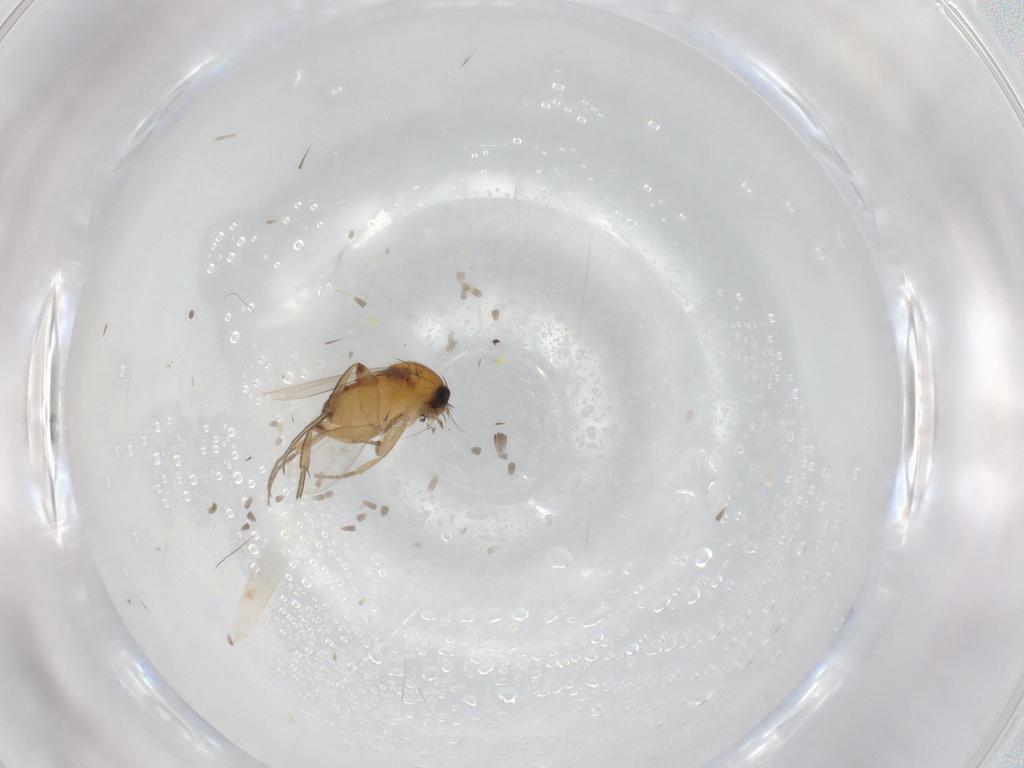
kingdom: Animalia
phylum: Arthropoda
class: Insecta
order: Diptera
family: Phoridae
